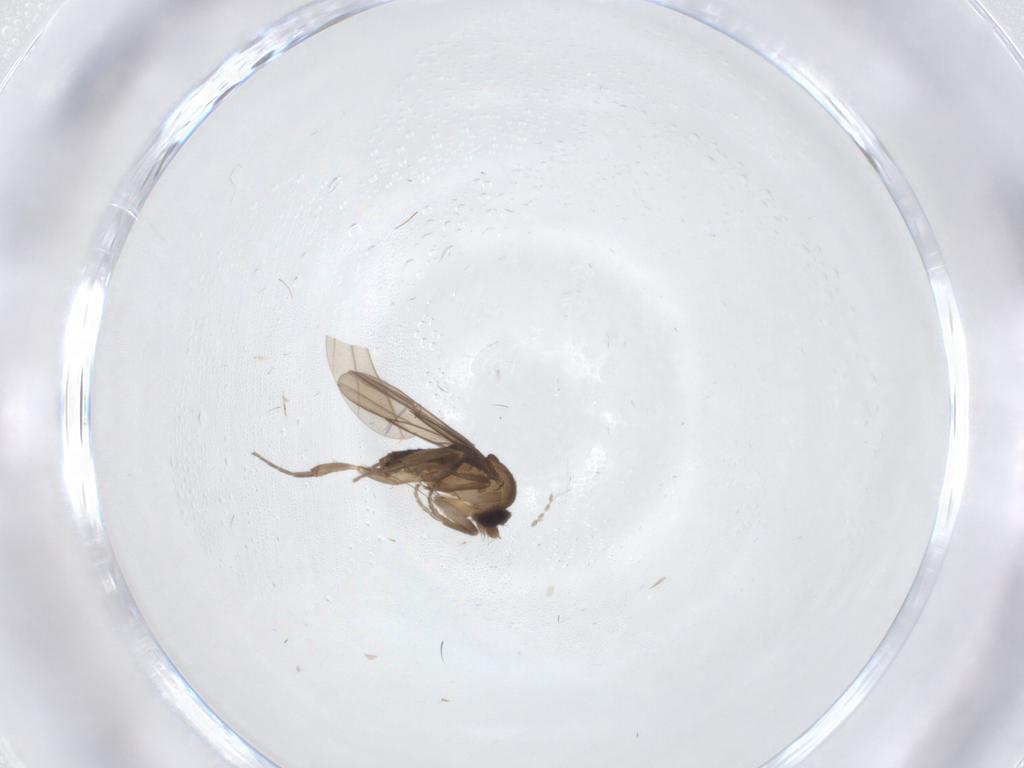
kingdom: Animalia
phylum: Arthropoda
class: Insecta
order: Diptera
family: Phoridae
